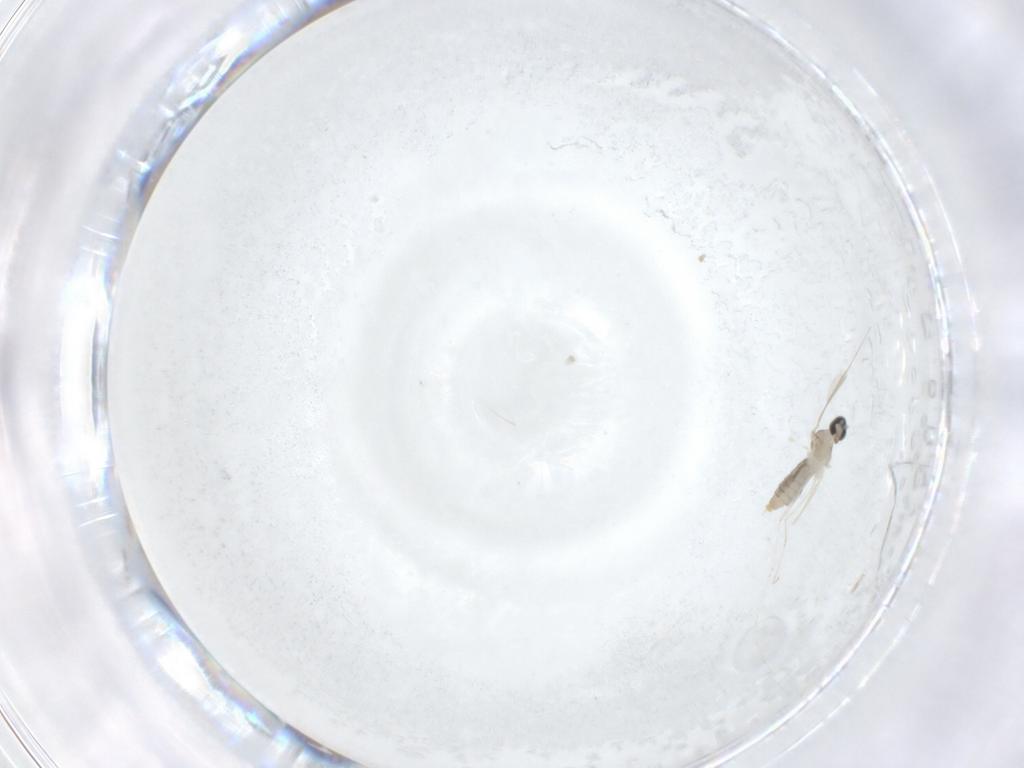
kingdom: Animalia
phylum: Arthropoda
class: Insecta
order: Diptera
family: Cecidomyiidae
